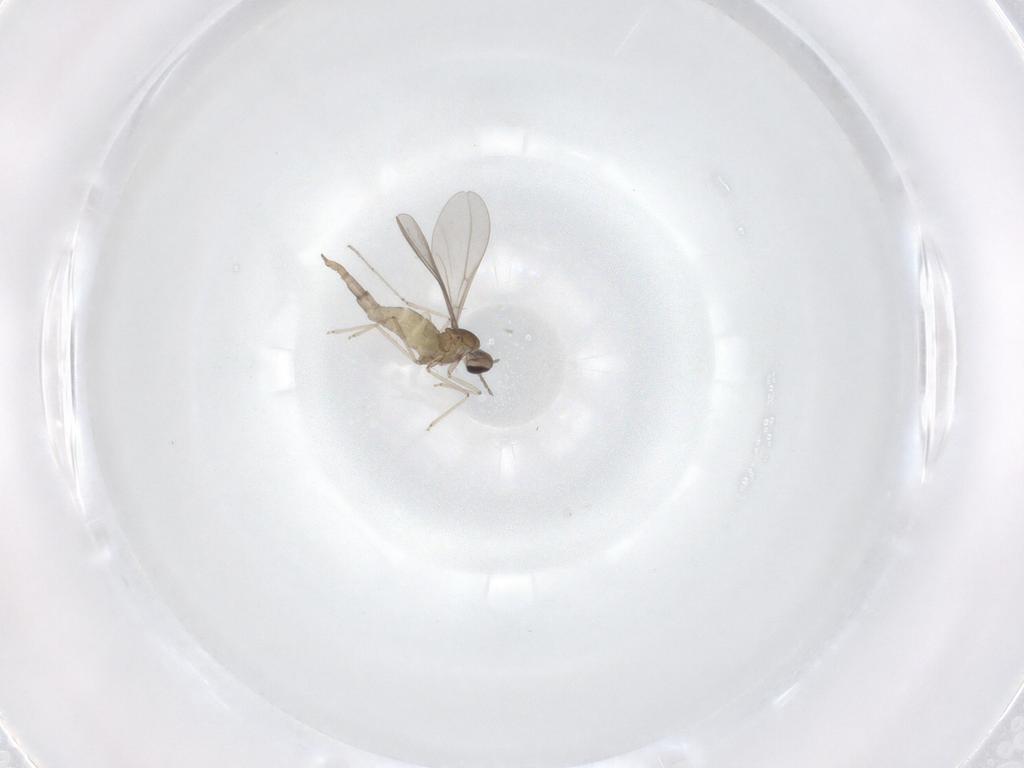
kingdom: Animalia
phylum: Arthropoda
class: Insecta
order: Diptera
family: Cecidomyiidae
